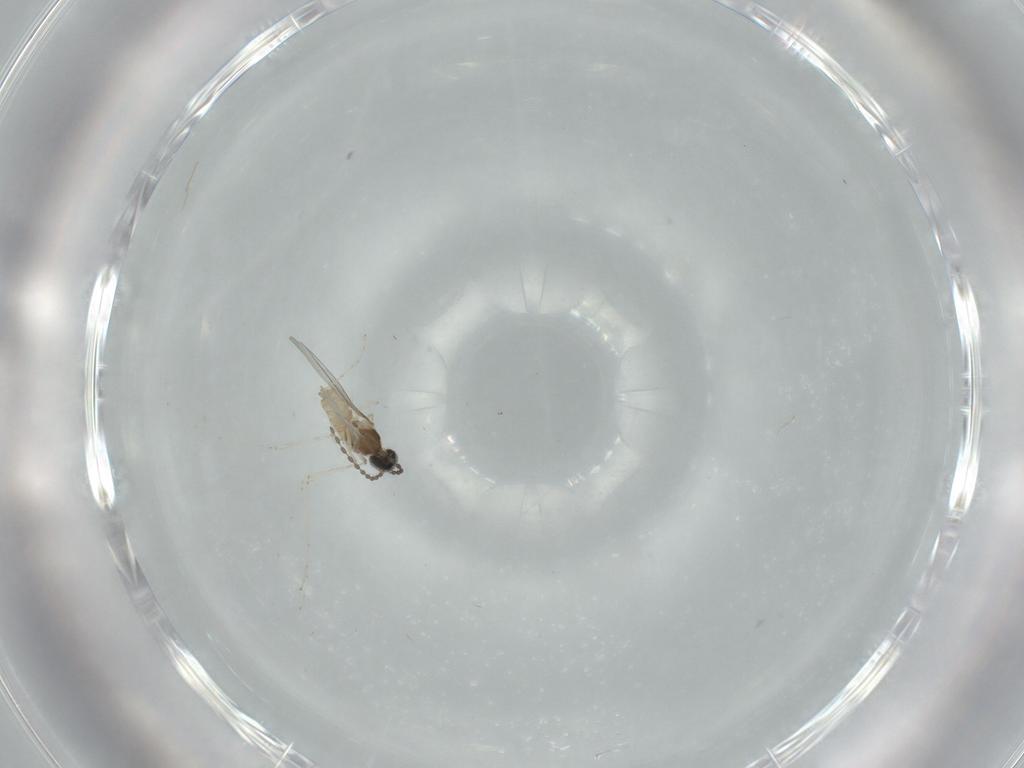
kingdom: Animalia
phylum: Arthropoda
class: Insecta
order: Diptera
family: Cecidomyiidae
